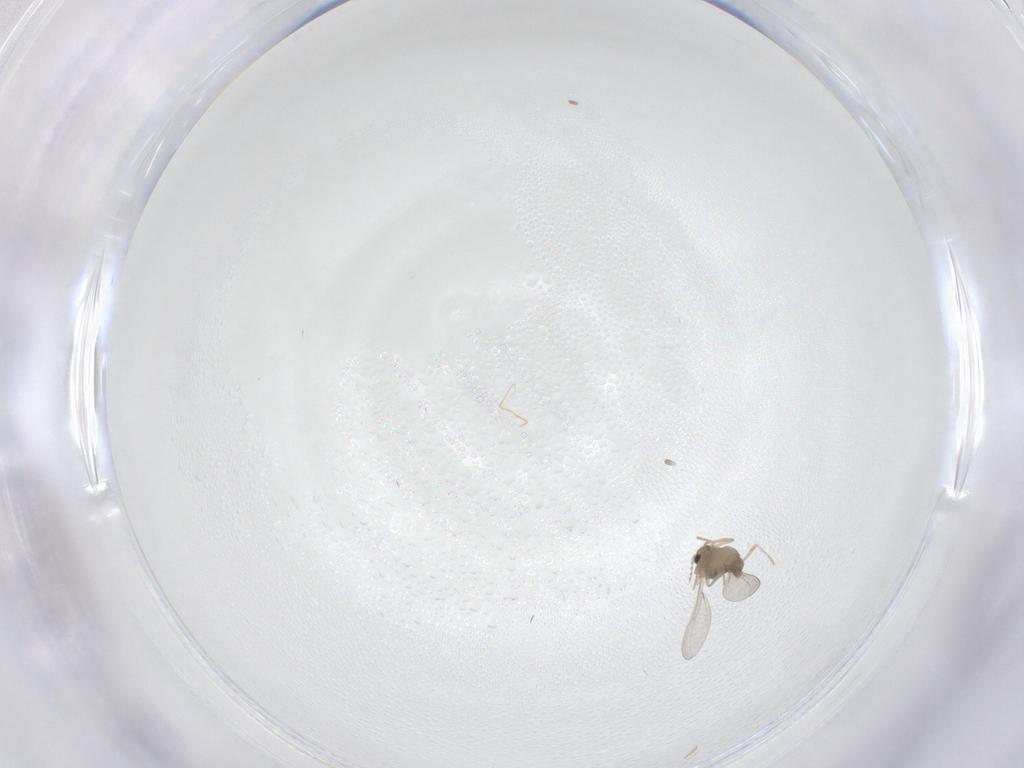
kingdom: Animalia
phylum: Arthropoda
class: Insecta
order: Diptera
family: Cecidomyiidae
